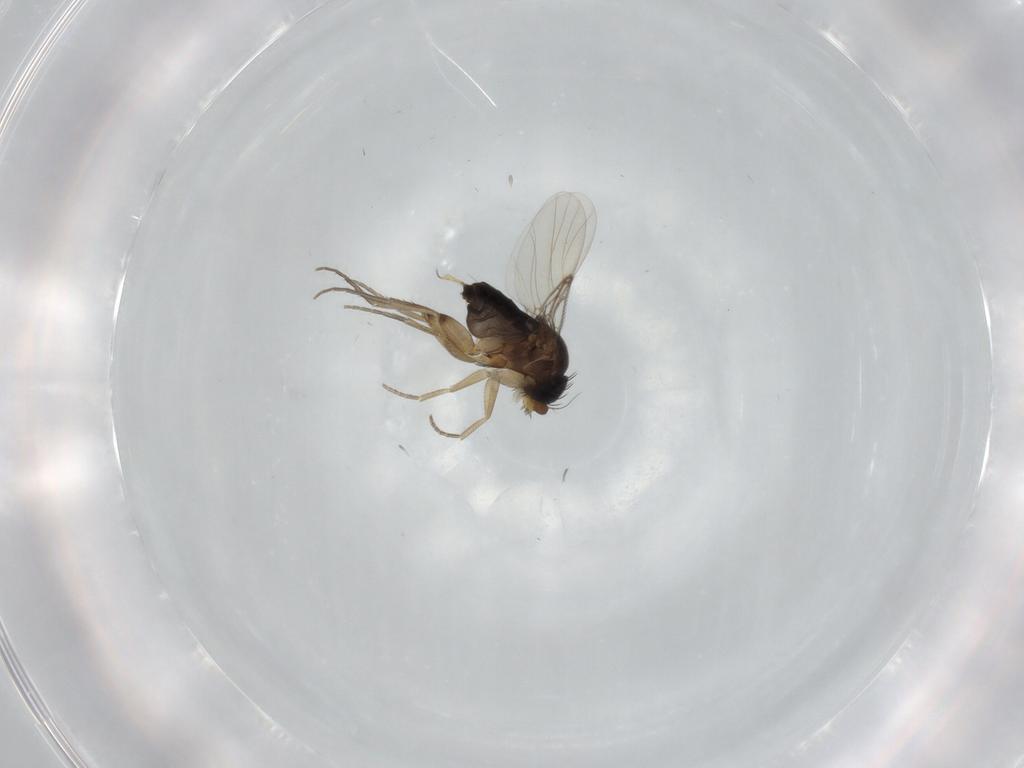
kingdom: Animalia
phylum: Arthropoda
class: Insecta
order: Diptera
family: Phoridae
